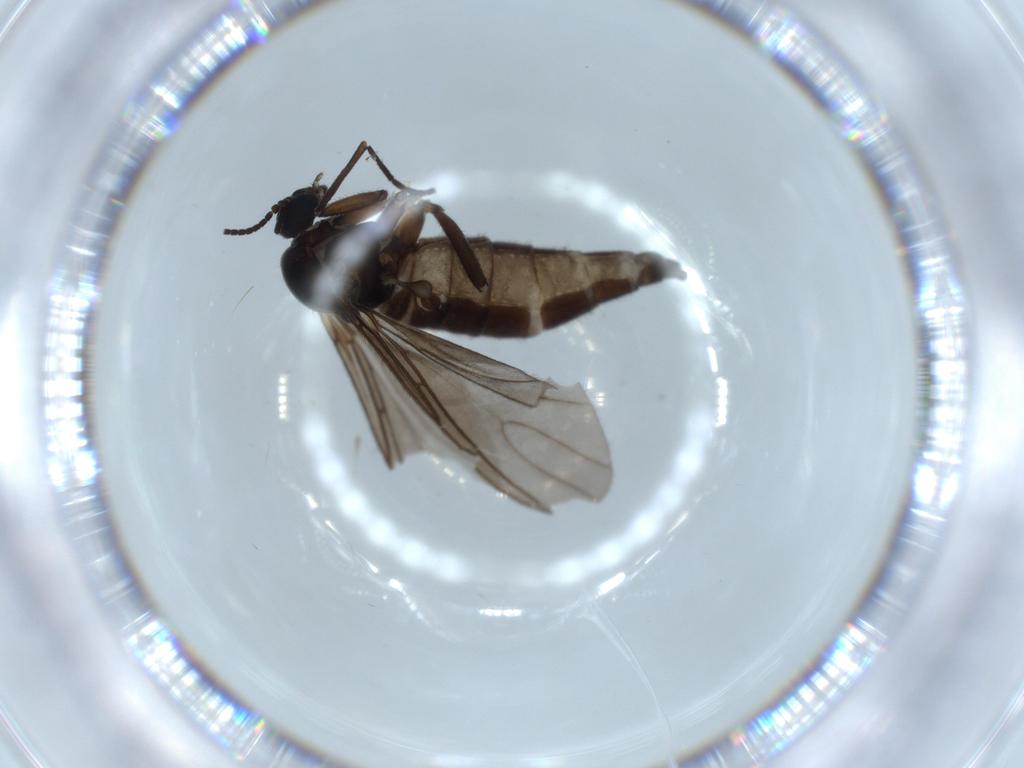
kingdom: Animalia
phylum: Arthropoda
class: Insecta
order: Diptera
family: Sciaridae
